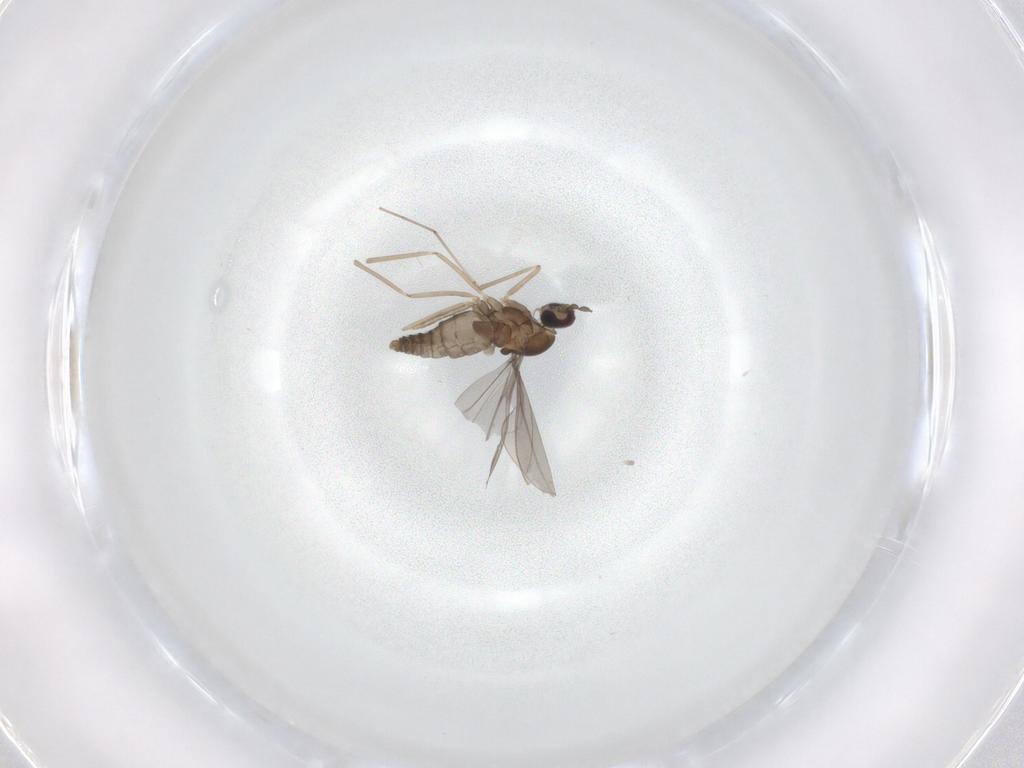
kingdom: Animalia
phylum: Arthropoda
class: Insecta
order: Diptera
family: Cecidomyiidae
